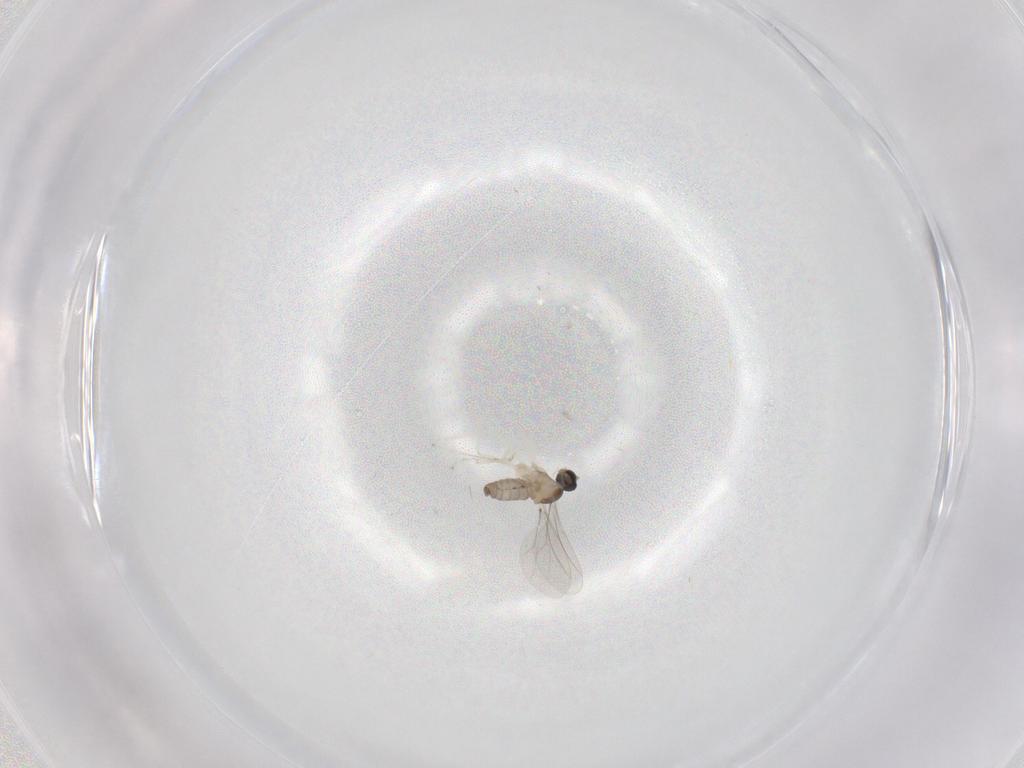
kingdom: Animalia
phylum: Arthropoda
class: Insecta
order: Diptera
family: Cecidomyiidae
